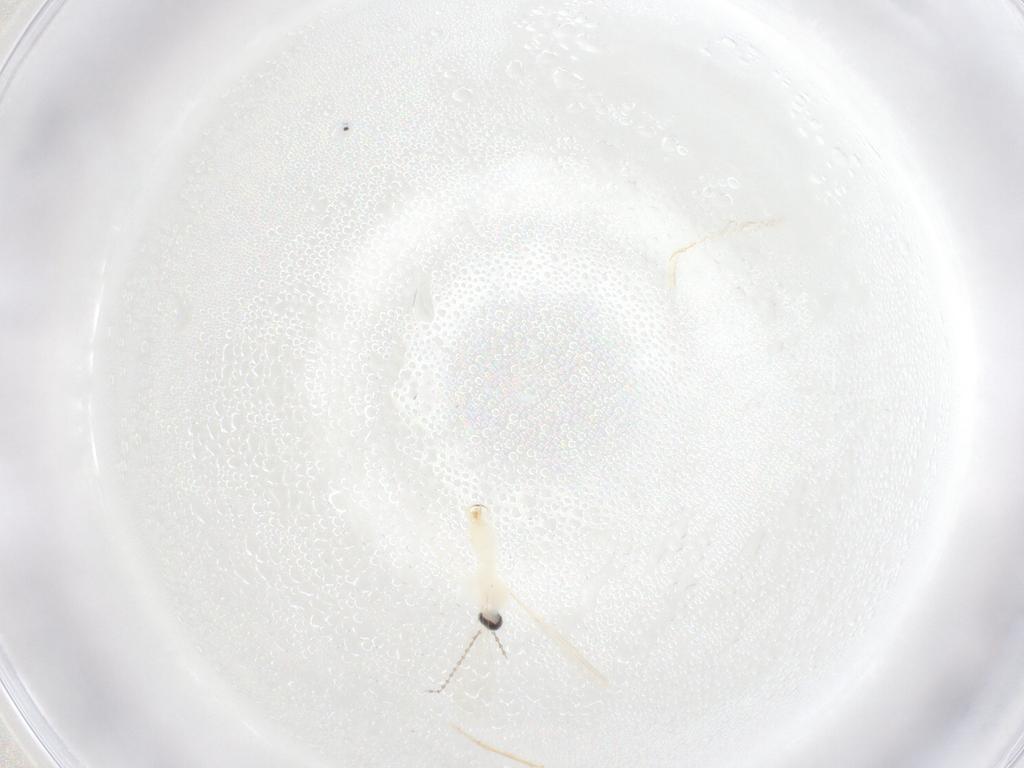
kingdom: Animalia
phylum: Arthropoda
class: Insecta
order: Diptera
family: Cecidomyiidae
